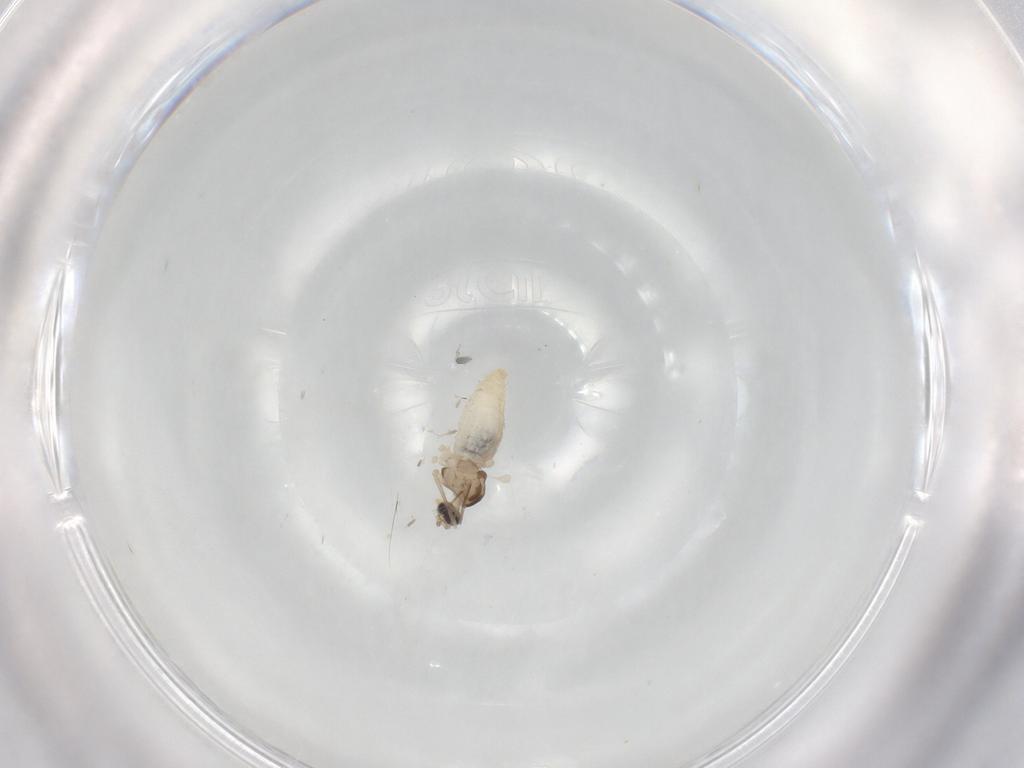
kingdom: Animalia
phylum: Arthropoda
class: Insecta
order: Diptera
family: Cecidomyiidae
